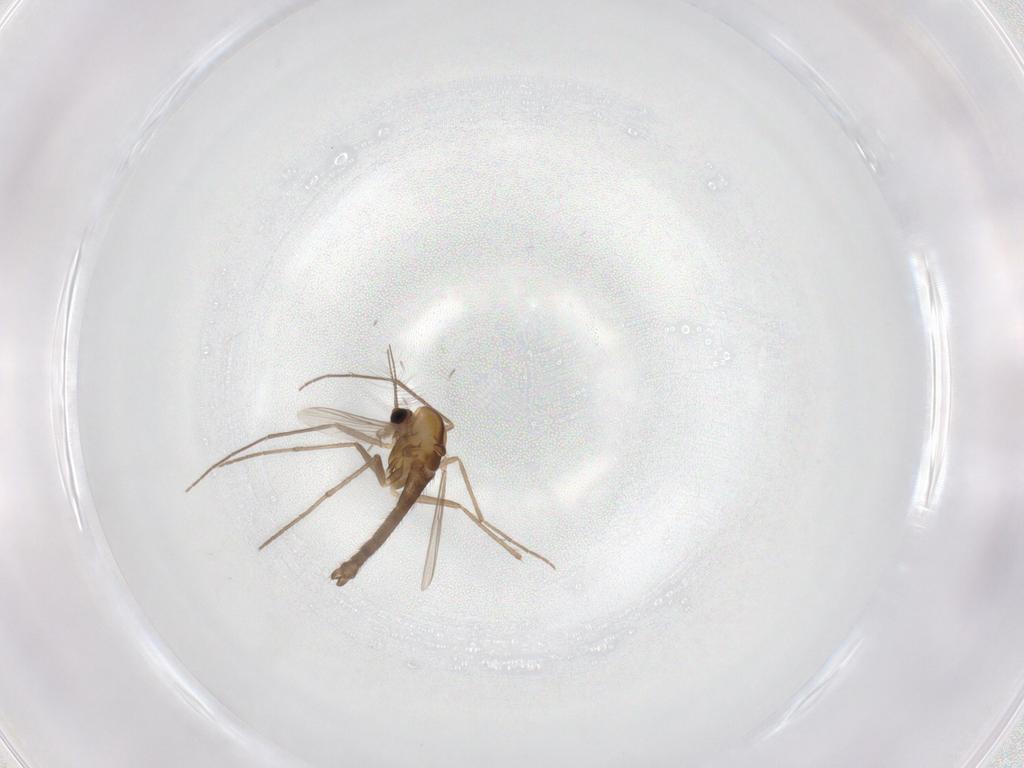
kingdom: Animalia
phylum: Arthropoda
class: Insecta
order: Diptera
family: Chironomidae
